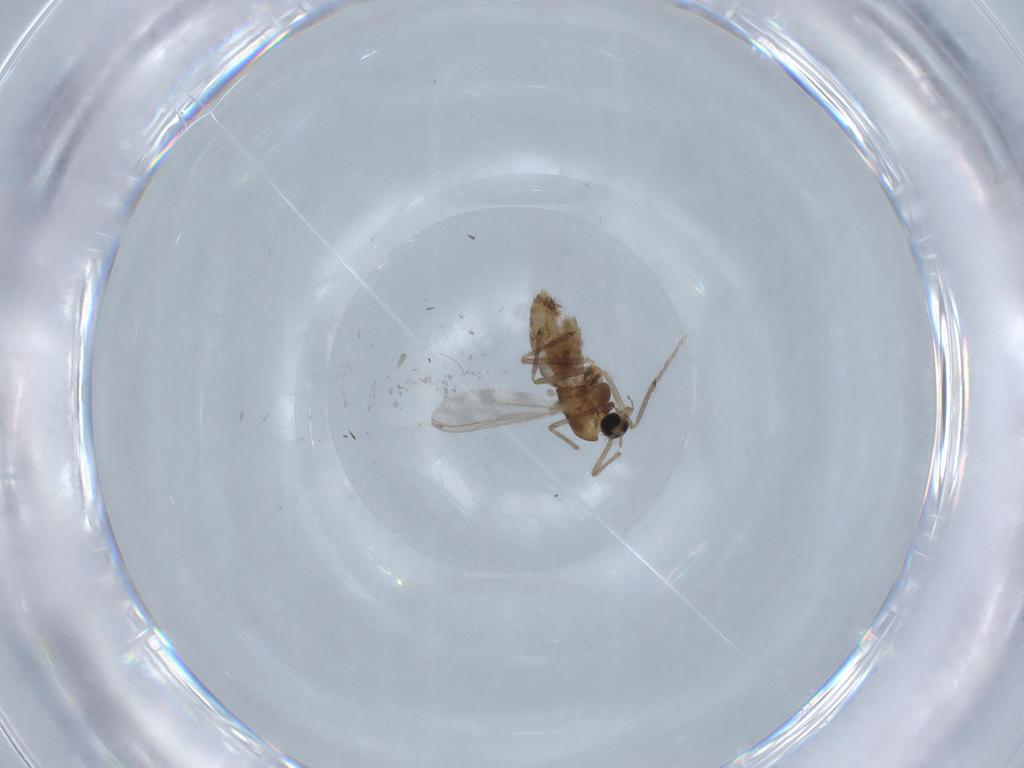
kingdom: Animalia
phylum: Arthropoda
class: Insecta
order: Diptera
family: Chironomidae
